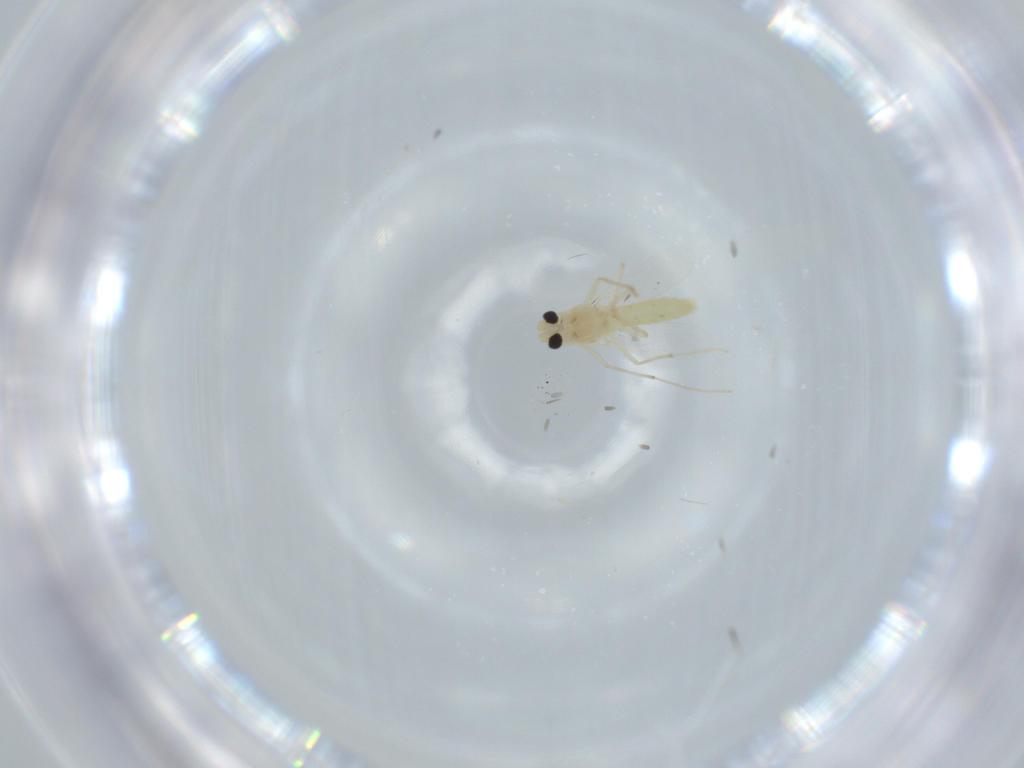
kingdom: Animalia
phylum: Arthropoda
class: Insecta
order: Diptera
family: Chironomidae
